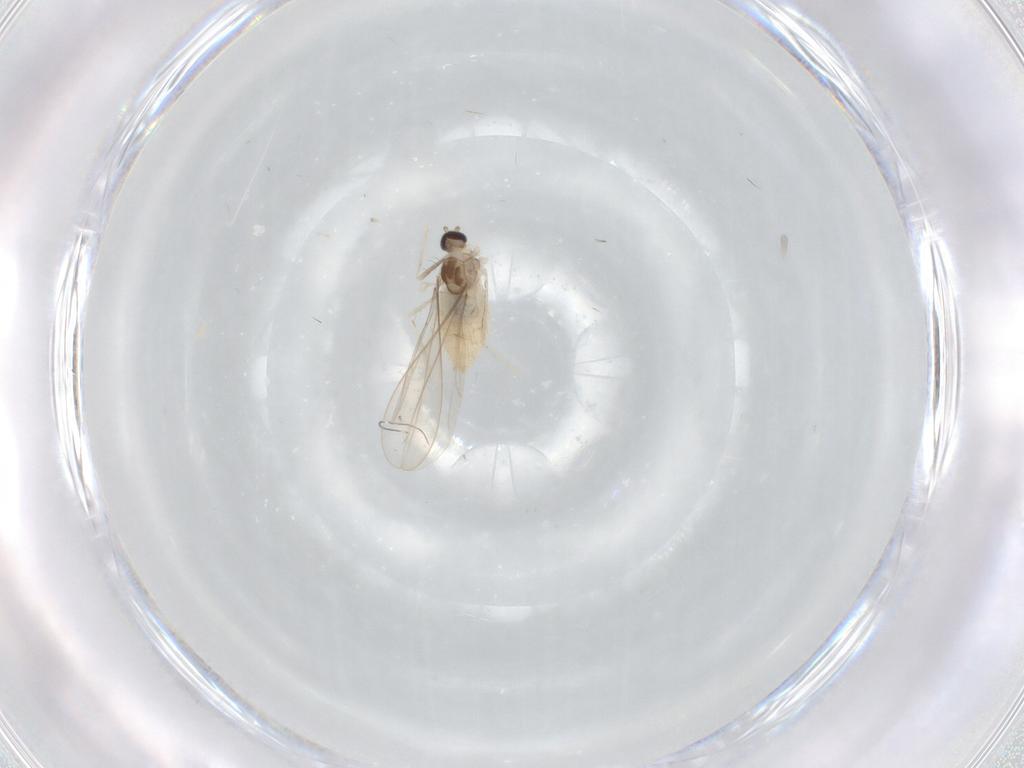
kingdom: Animalia
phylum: Arthropoda
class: Insecta
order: Diptera
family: Cecidomyiidae
